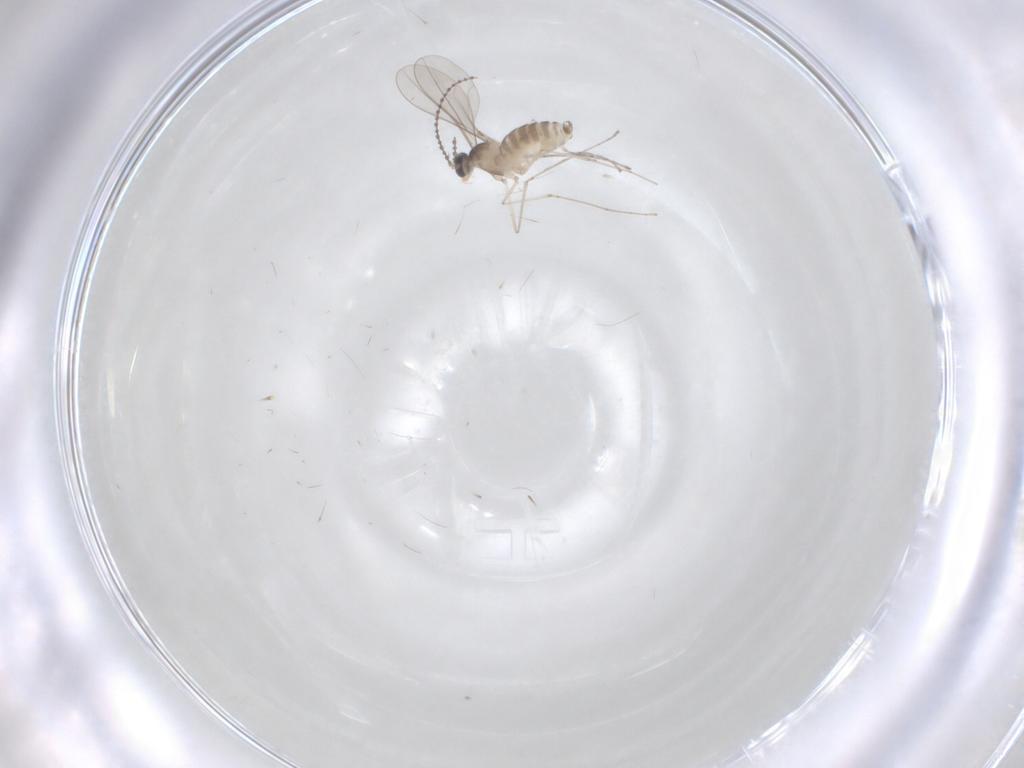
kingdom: Animalia
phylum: Arthropoda
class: Insecta
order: Diptera
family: Cecidomyiidae
